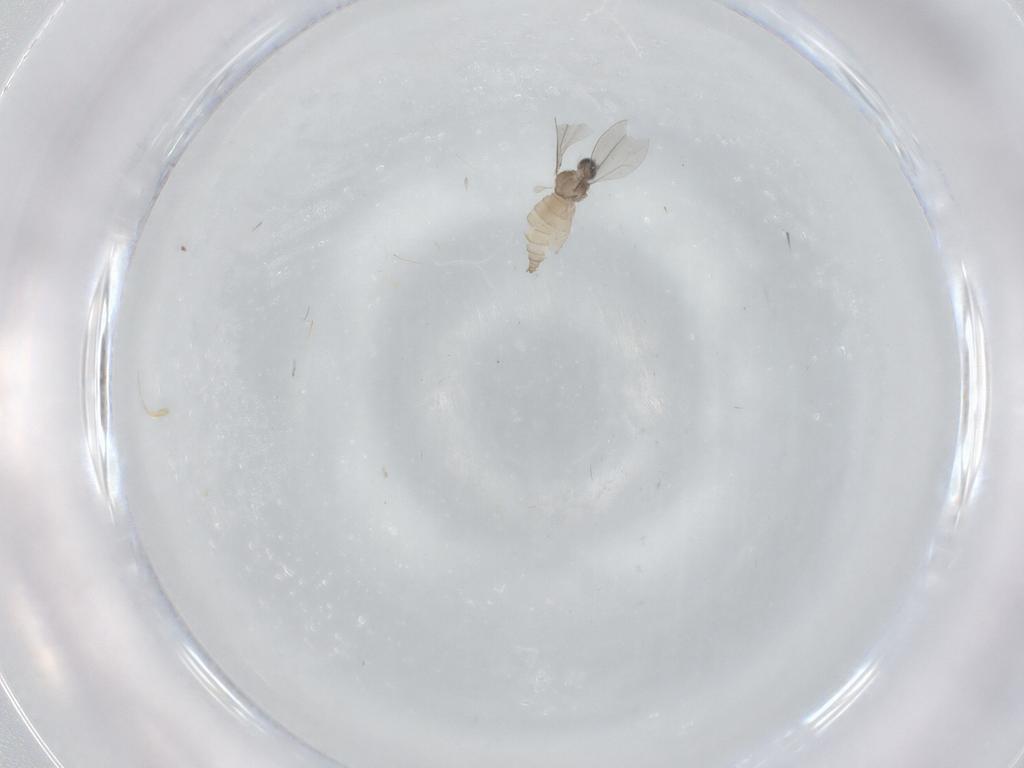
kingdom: Animalia
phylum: Arthropoda
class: Insecta
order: Diptera
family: Cecidomyiidae
